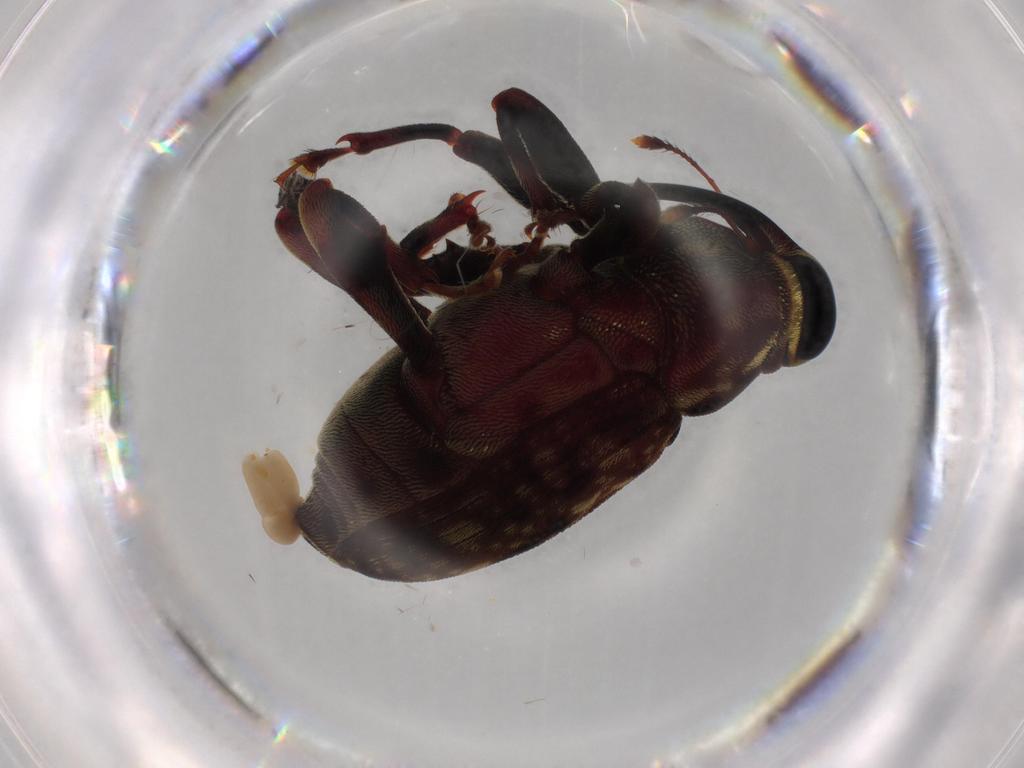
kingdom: Animalia
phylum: Arthropoda
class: Insecta
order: Coleoptera
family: Curculionidae
